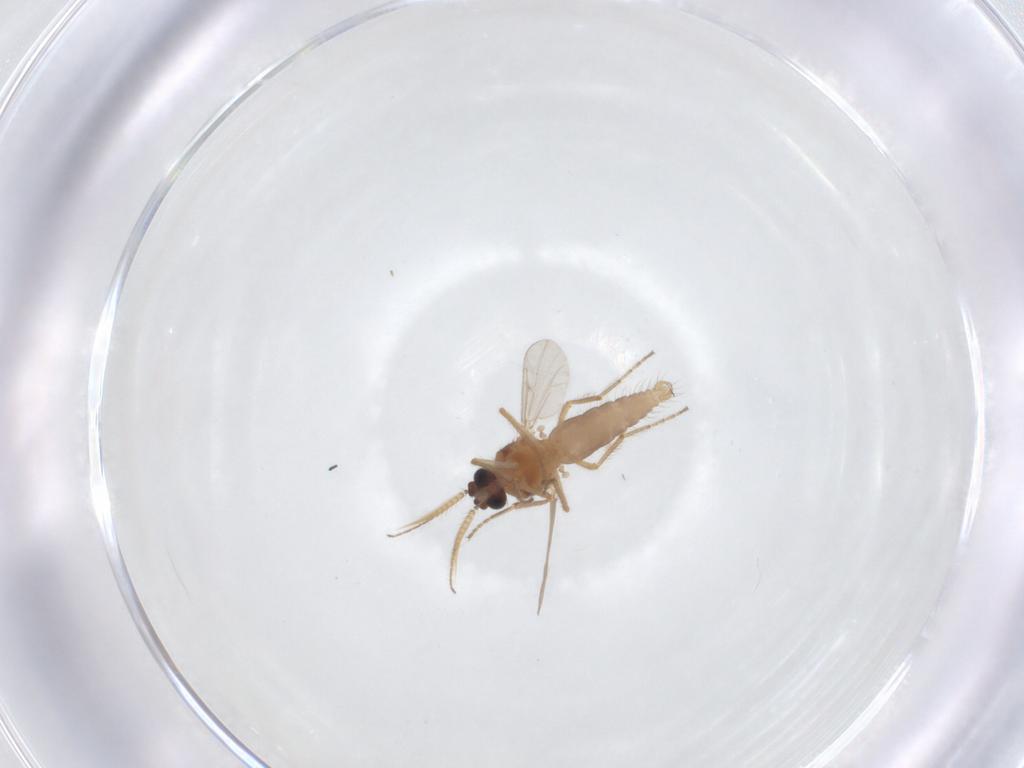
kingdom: Animalia
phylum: Arthropoda
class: Insecta
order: Diptera
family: Ceratopogonidae
